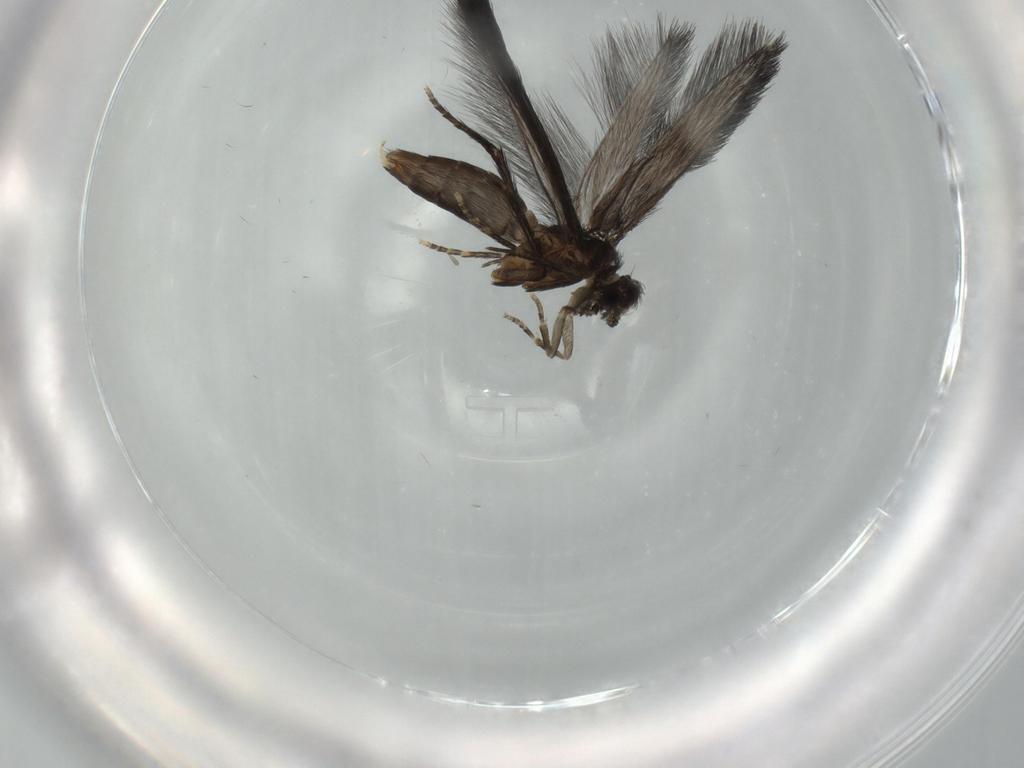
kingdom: Animalia
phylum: Arthropoda
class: Insecta
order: Trichoptera
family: Hydroptilidae
